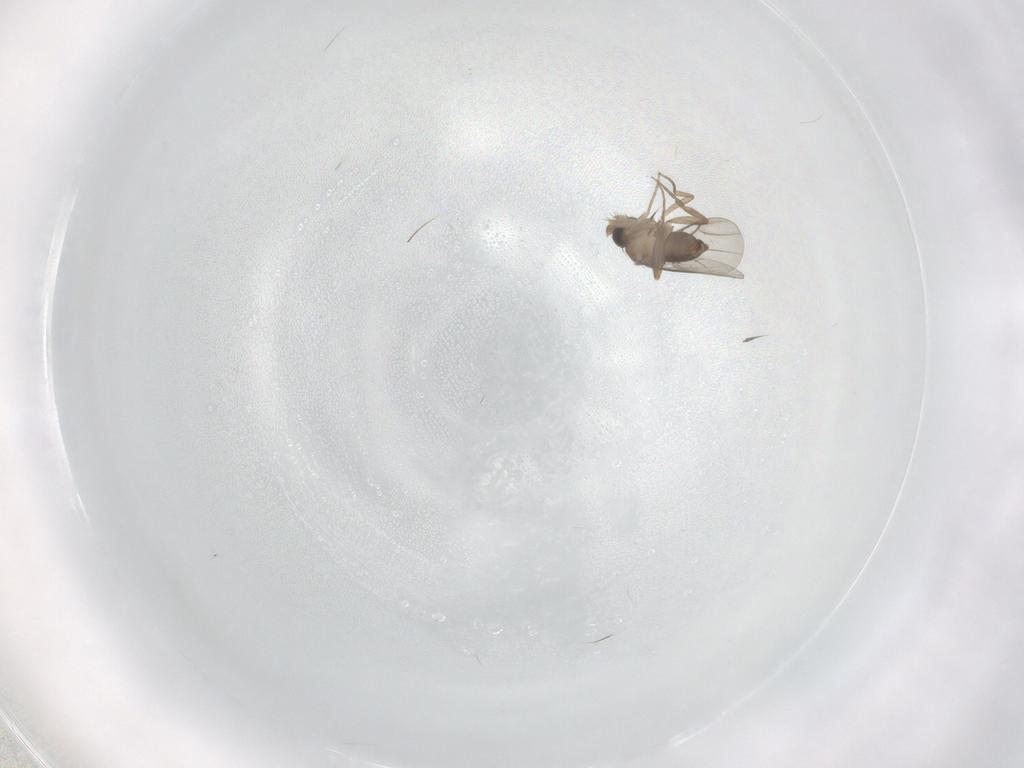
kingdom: Animalia
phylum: Arthropoda
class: Insecta
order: Diptera
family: Psychodidae
